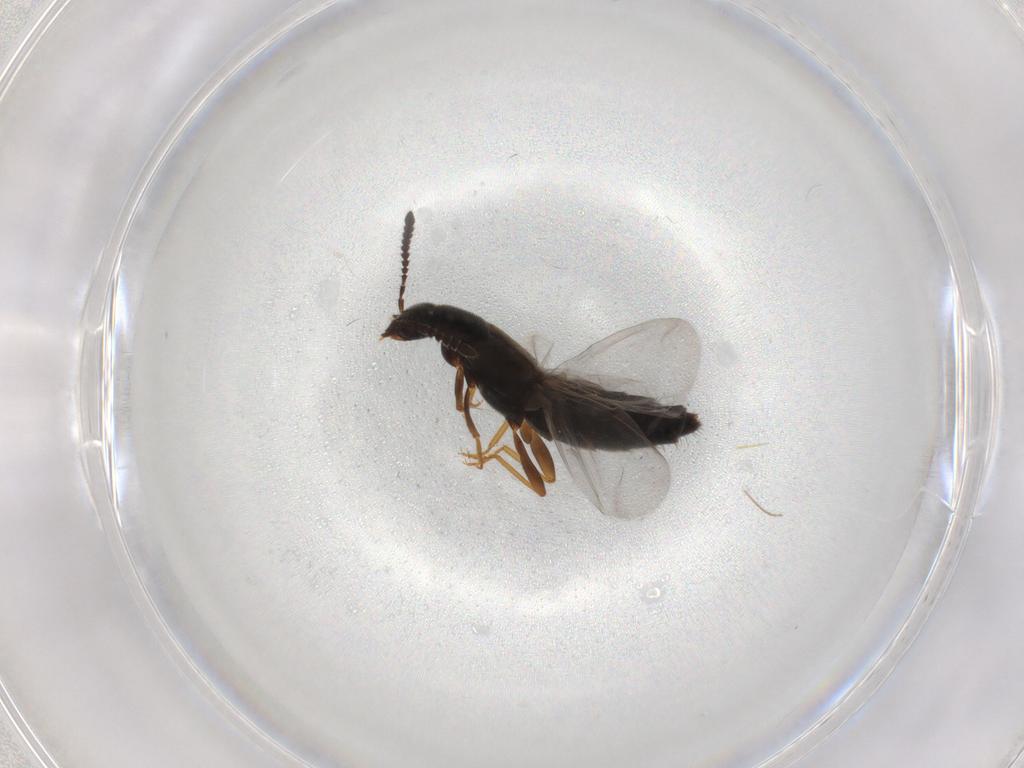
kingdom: Animalia
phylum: Arthropoda
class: Insecta
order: Coleoptera
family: Staphylinidae
